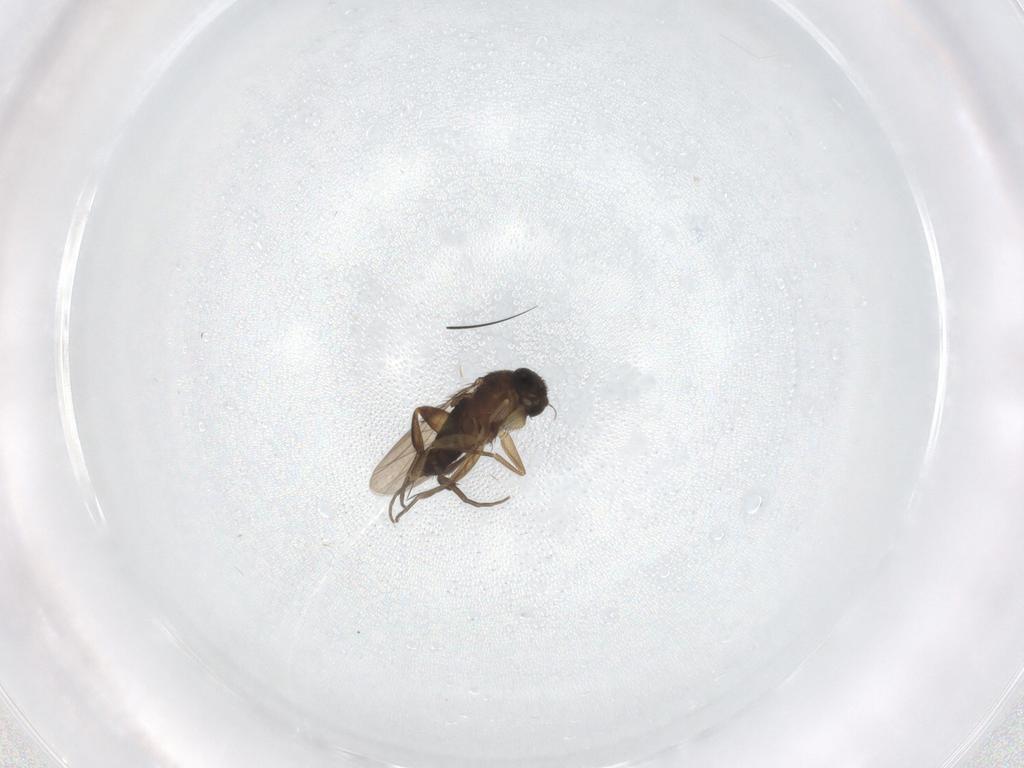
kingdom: Animalia
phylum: Arthropoda
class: Insecta
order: Diptera
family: Phoridae
